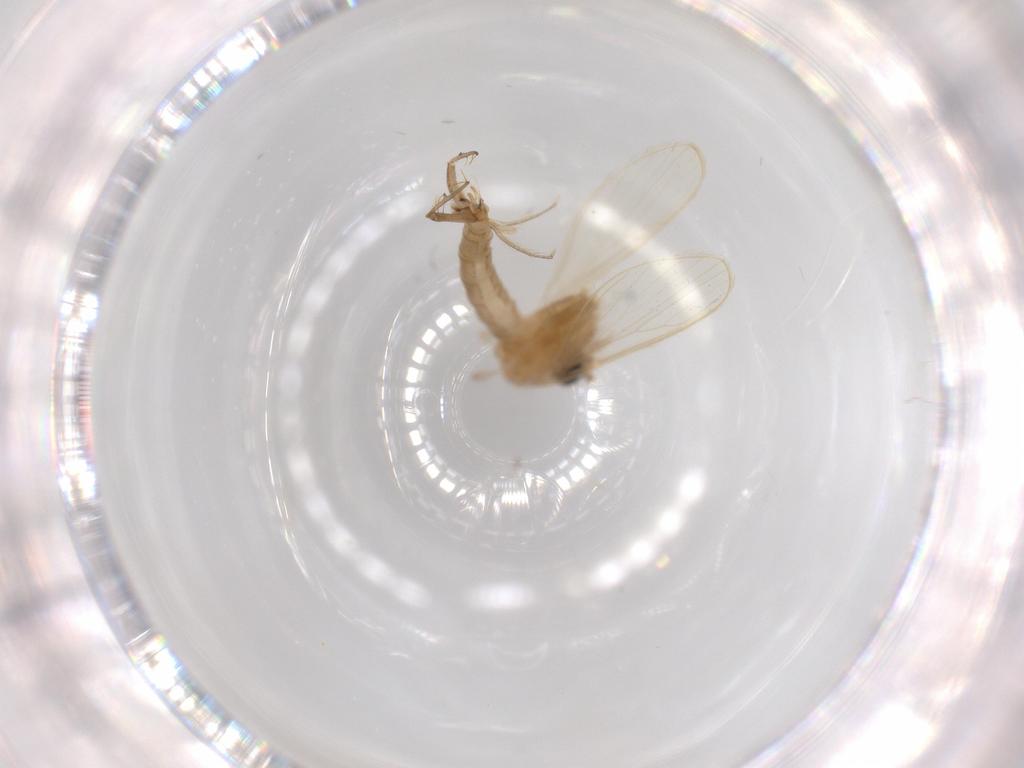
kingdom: Animalia
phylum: Arthropoda
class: Insecta
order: Diptera
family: Psychodidae
